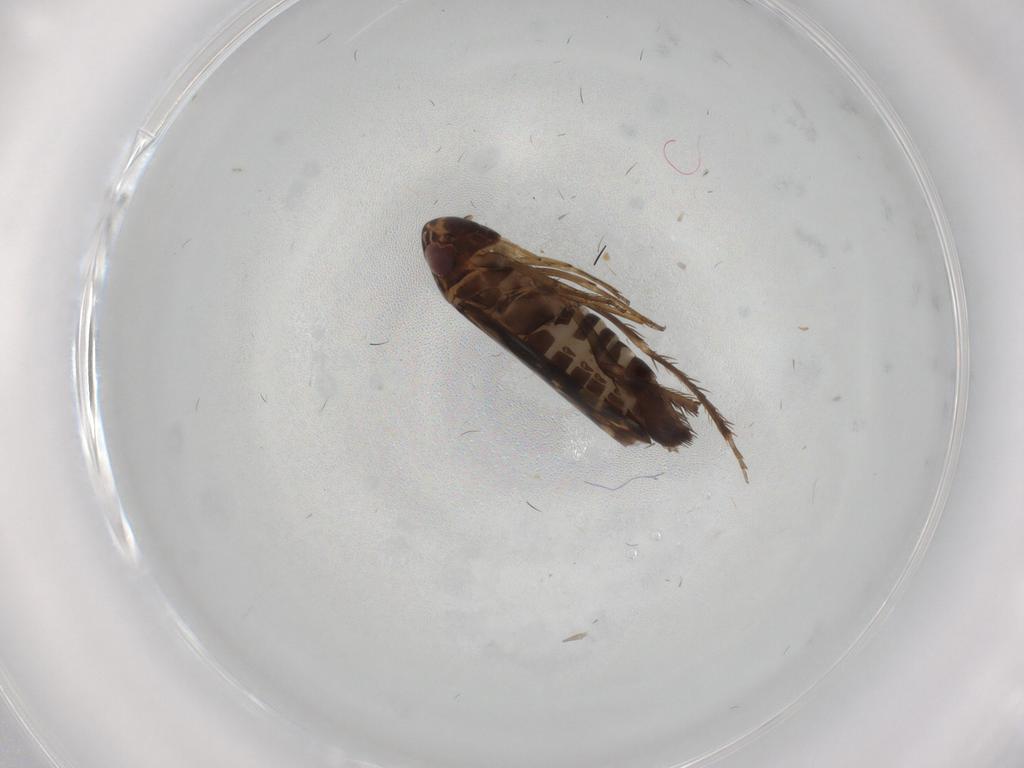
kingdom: Animalia
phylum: Arthropoda
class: Insecta
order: Hemiptera
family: Cicadellidae
